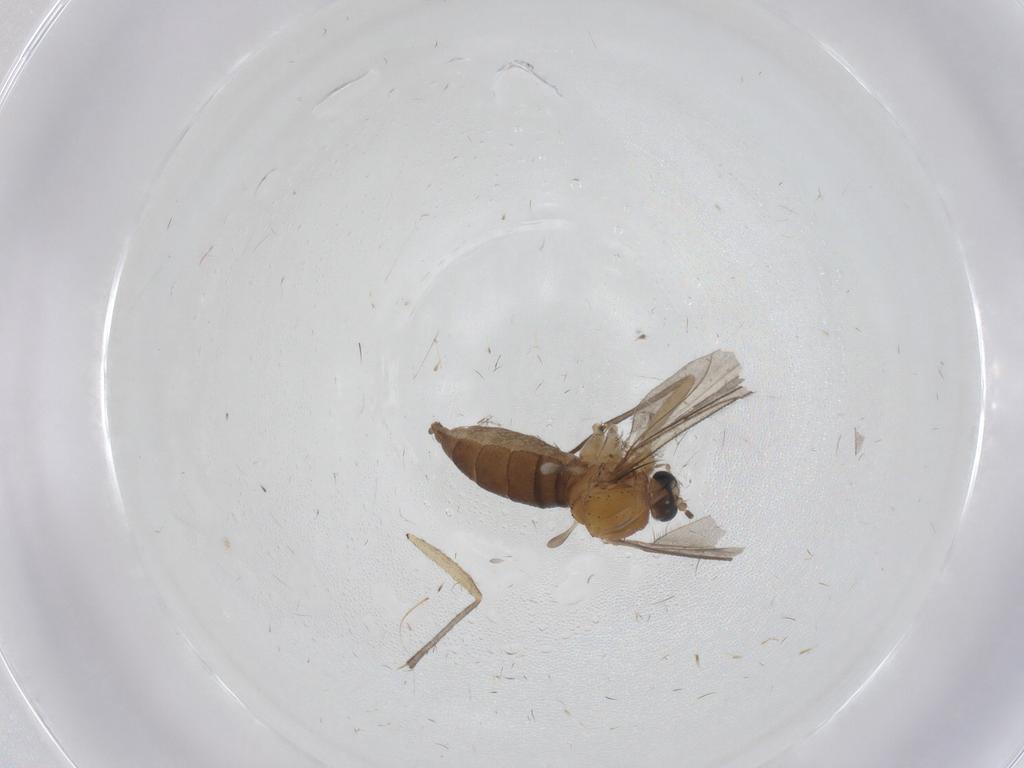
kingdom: Animalia
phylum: Arthropoda
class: Insecta
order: Diptera
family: Sciaridae
